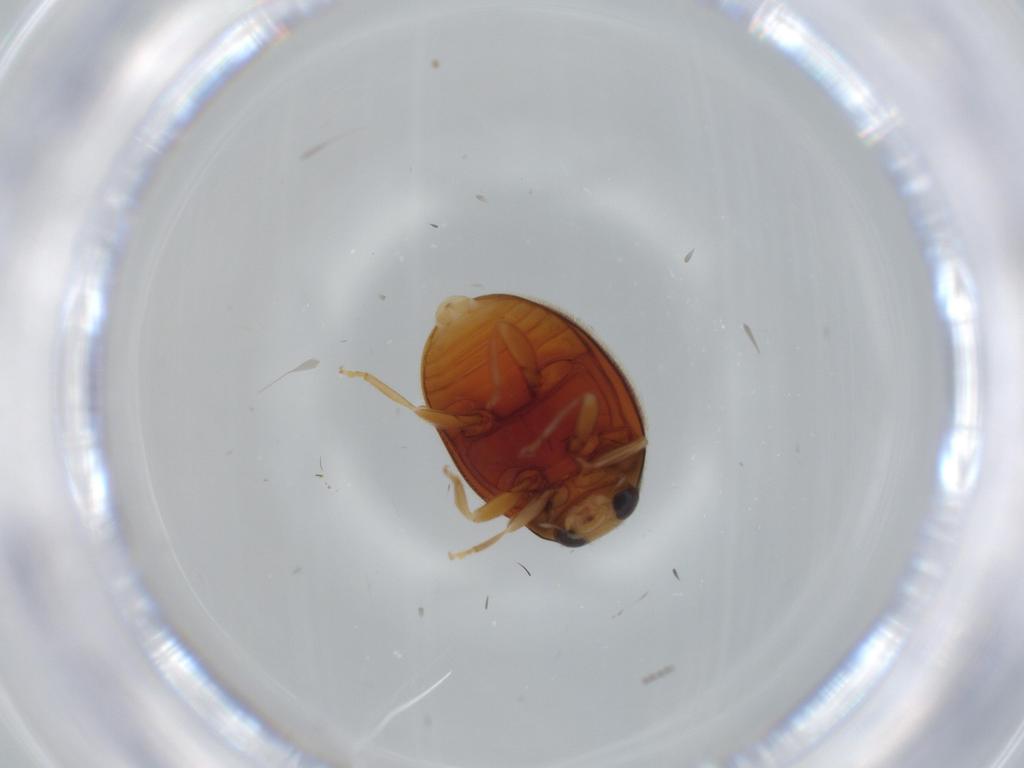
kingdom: Animalia
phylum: Arthropoda
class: Insecta
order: Coleoptera
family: Coccinellidae
